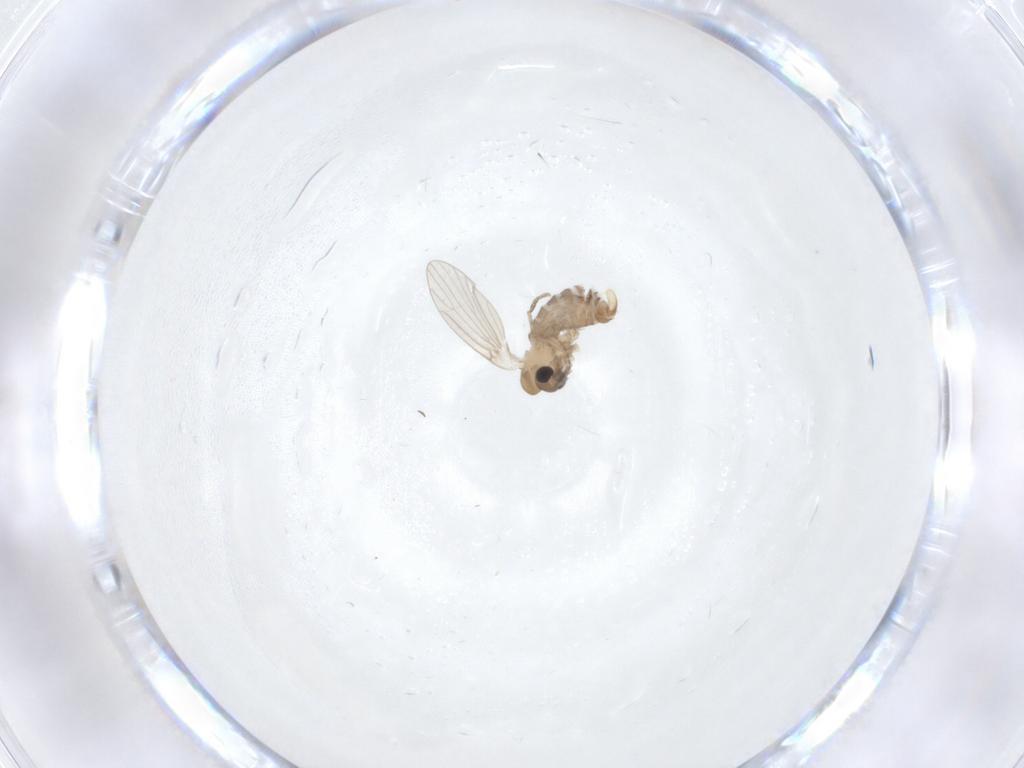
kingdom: Animalia
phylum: Arthropoda
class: Insecta
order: Diptera
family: Psychodidae
